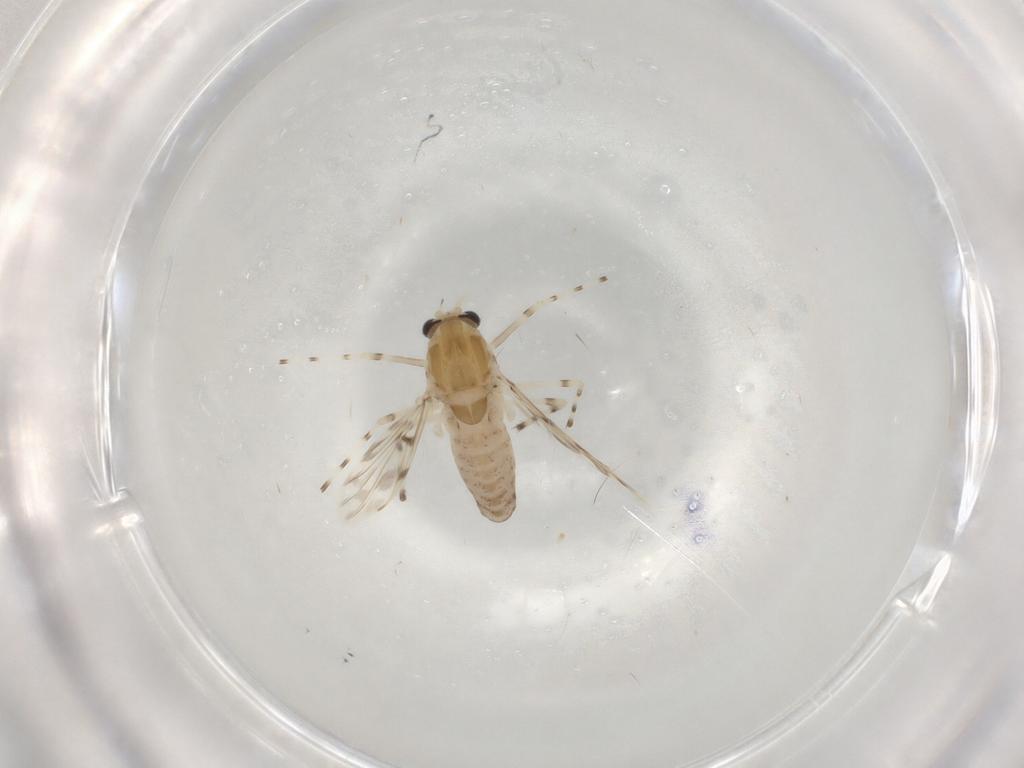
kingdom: Animalia
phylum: Arthropoda
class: Insecta
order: Diptera
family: Chironomidae
